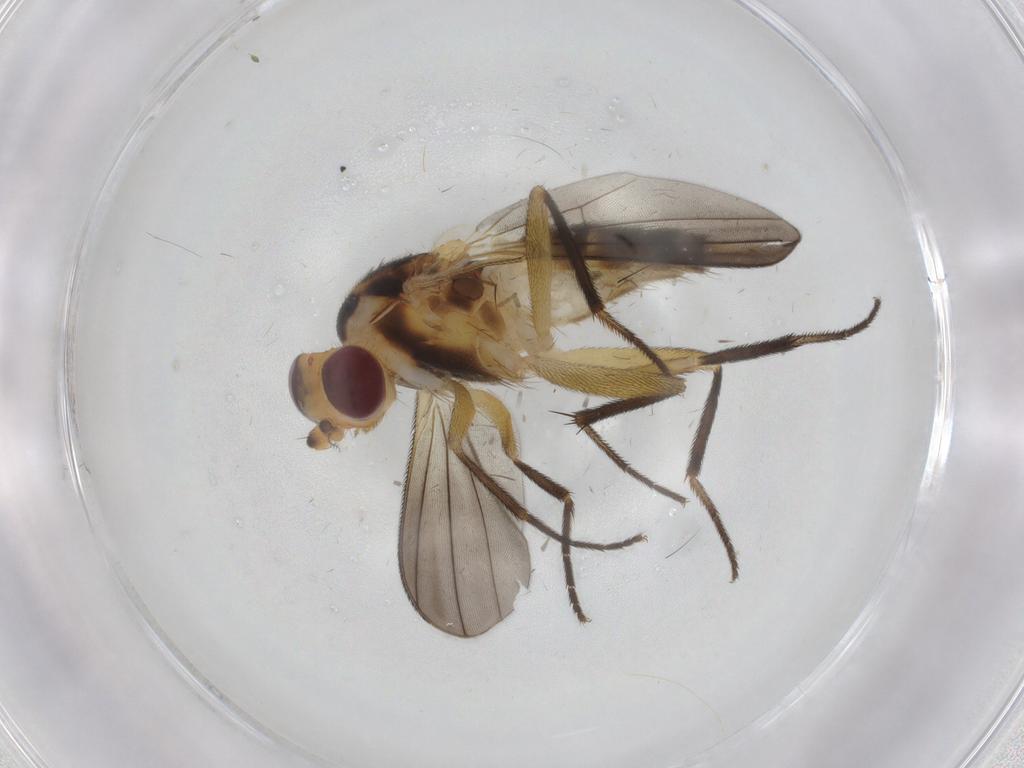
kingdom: Animalia
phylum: Arthropoda
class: Insecta
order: Diptera
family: Clusiidae
